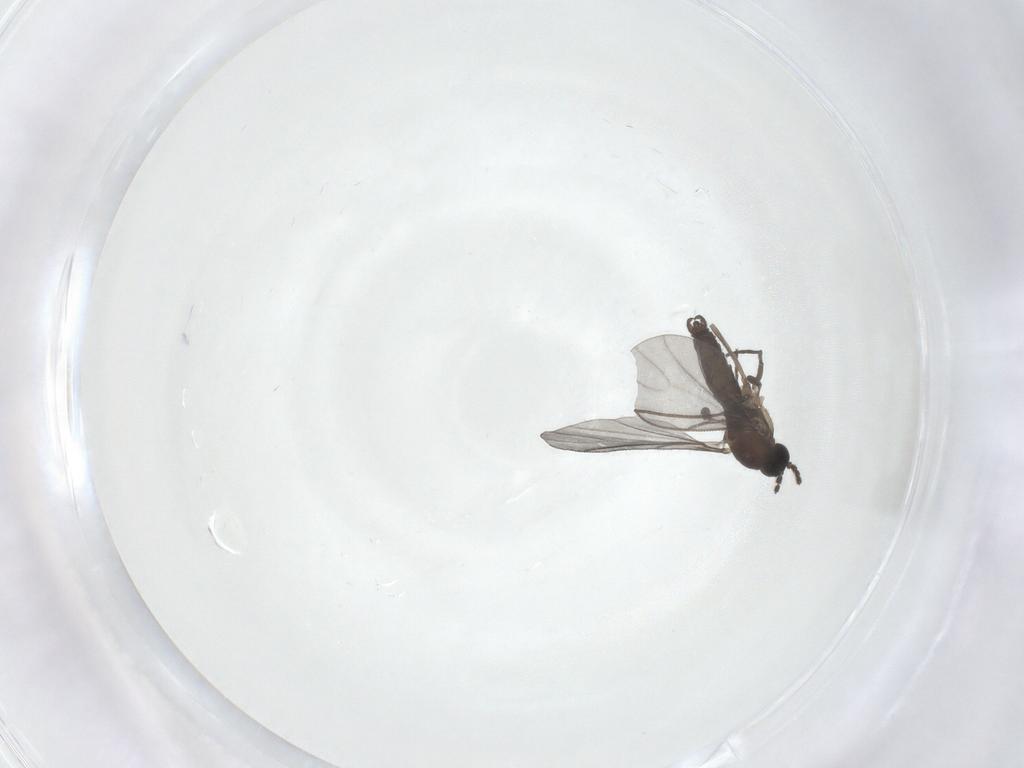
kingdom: Animalia
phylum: Arthropoda
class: Insecta
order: Diptera
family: Sciaridae
